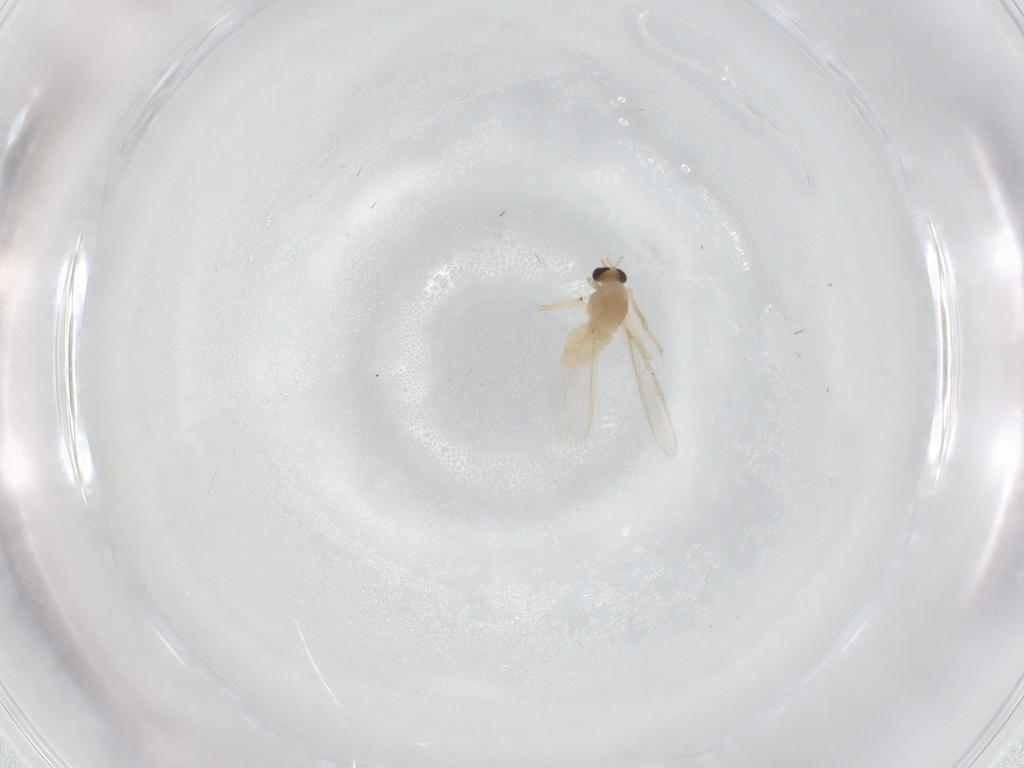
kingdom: Animalia
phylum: Arthropoda
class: Insecta
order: Diptera
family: Chironomidae
